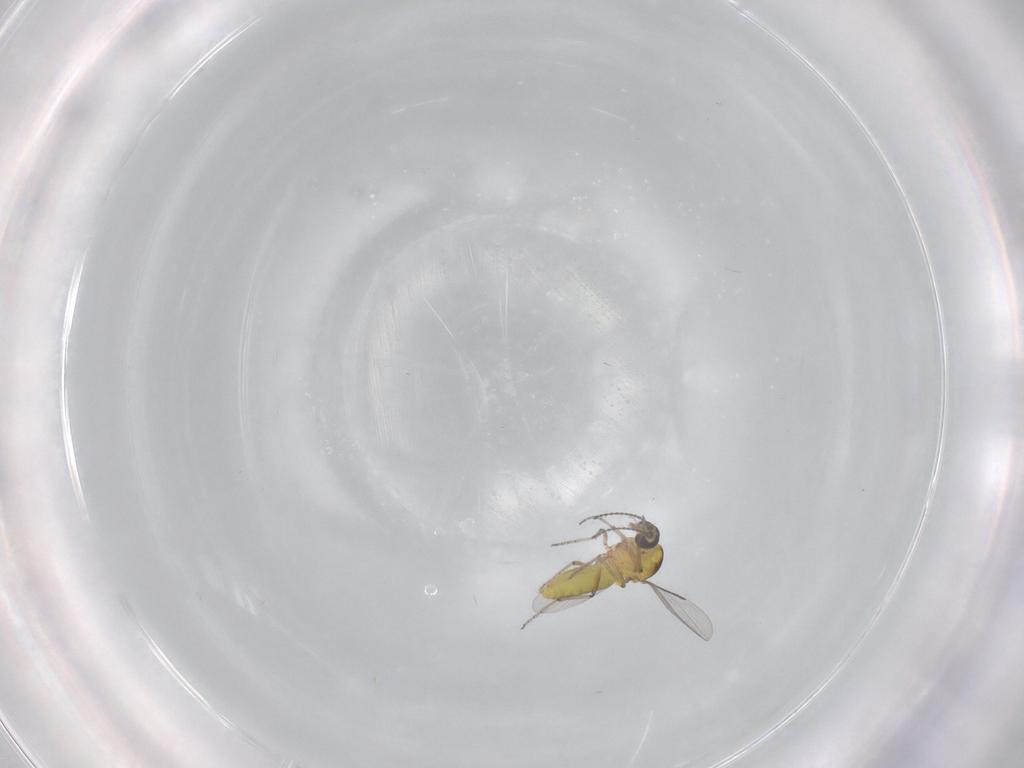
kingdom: Animalia
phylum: Arthropoda
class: Insecta
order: Diptera
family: Ceratopogonidae
